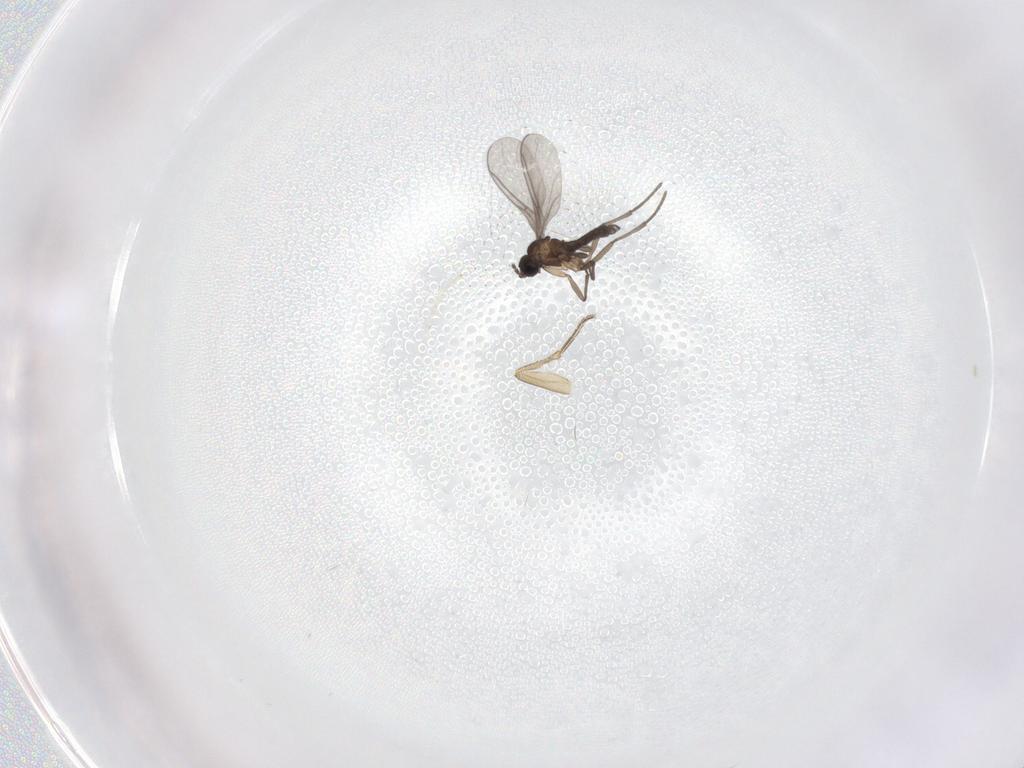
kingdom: Animalia
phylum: Arthropoda
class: Insecta
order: Diptera
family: Sciaridae
